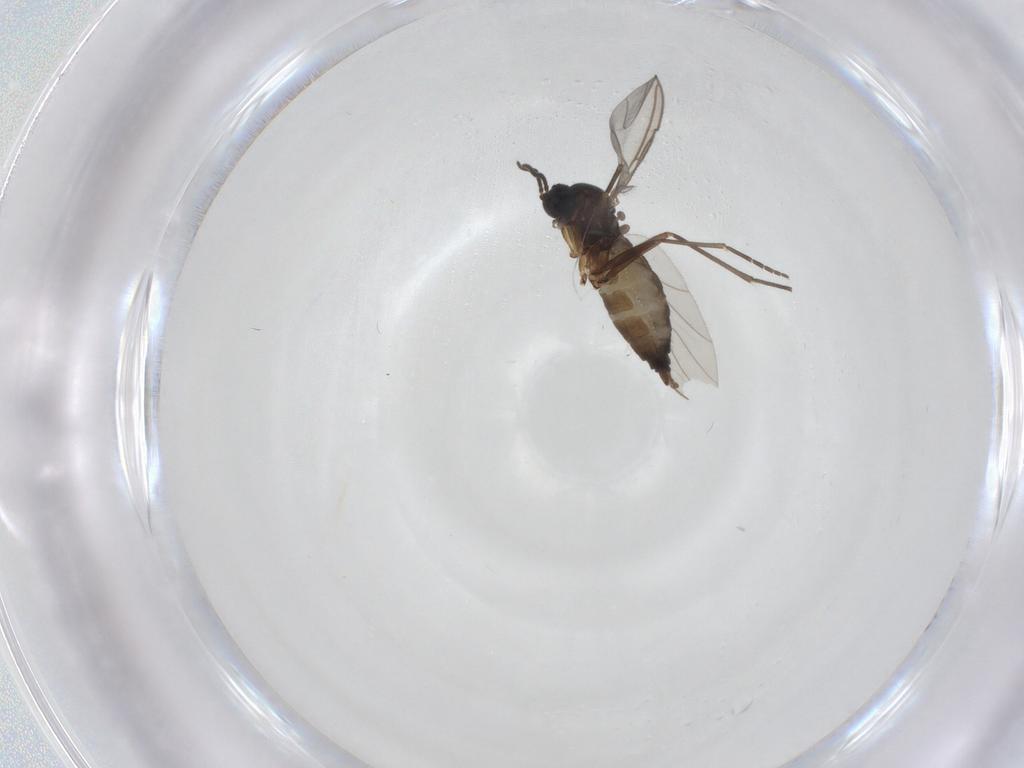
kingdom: Animalia
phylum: Arthropoda
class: Insecta
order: Diptera
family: Sciaridae
